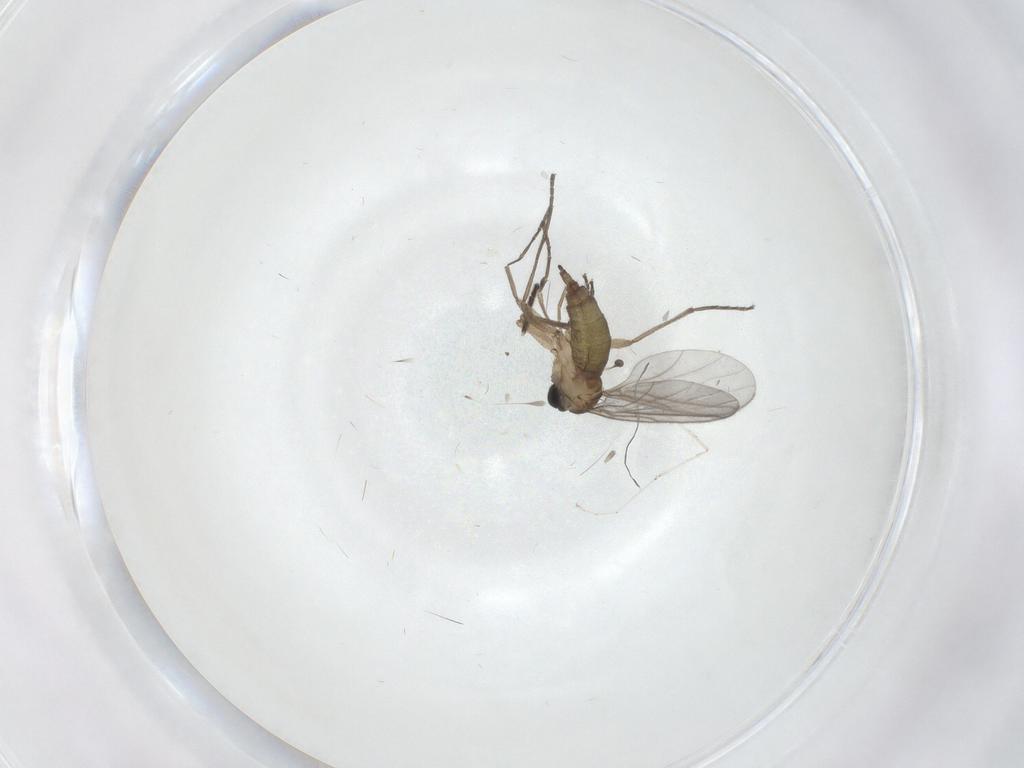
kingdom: Animalia
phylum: Arthropoda
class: Insecta
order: Diptera
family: Sciaridae
